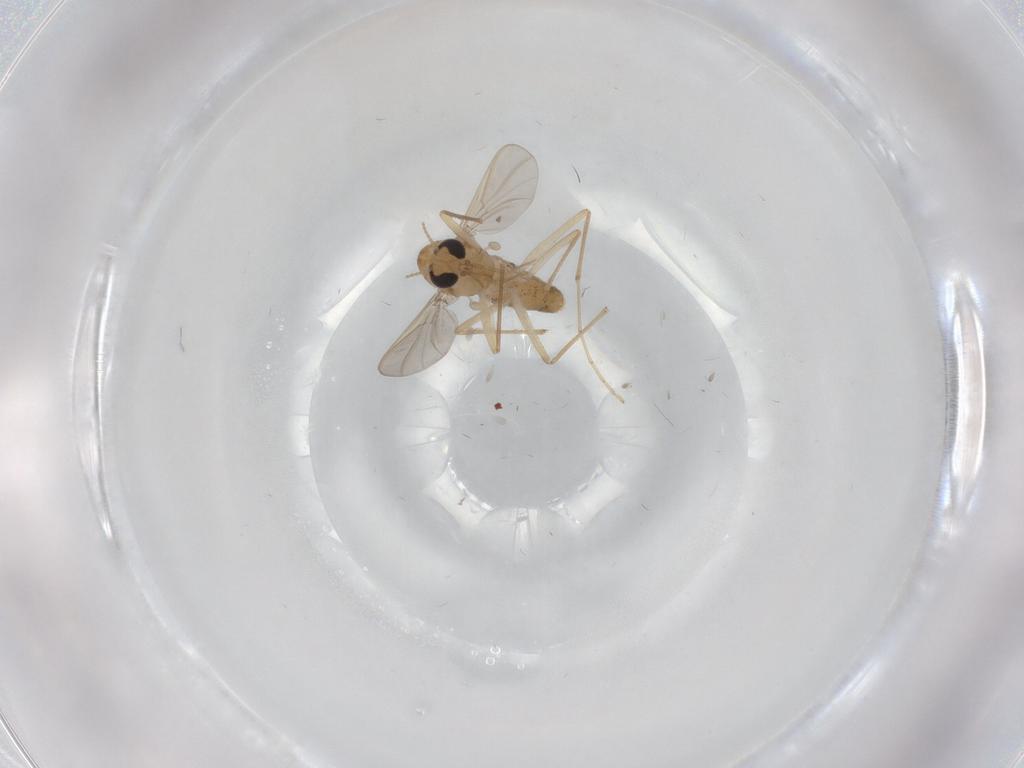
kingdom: Animalia
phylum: Arthropoda
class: Insecta
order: Diptera
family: Chironomidae
